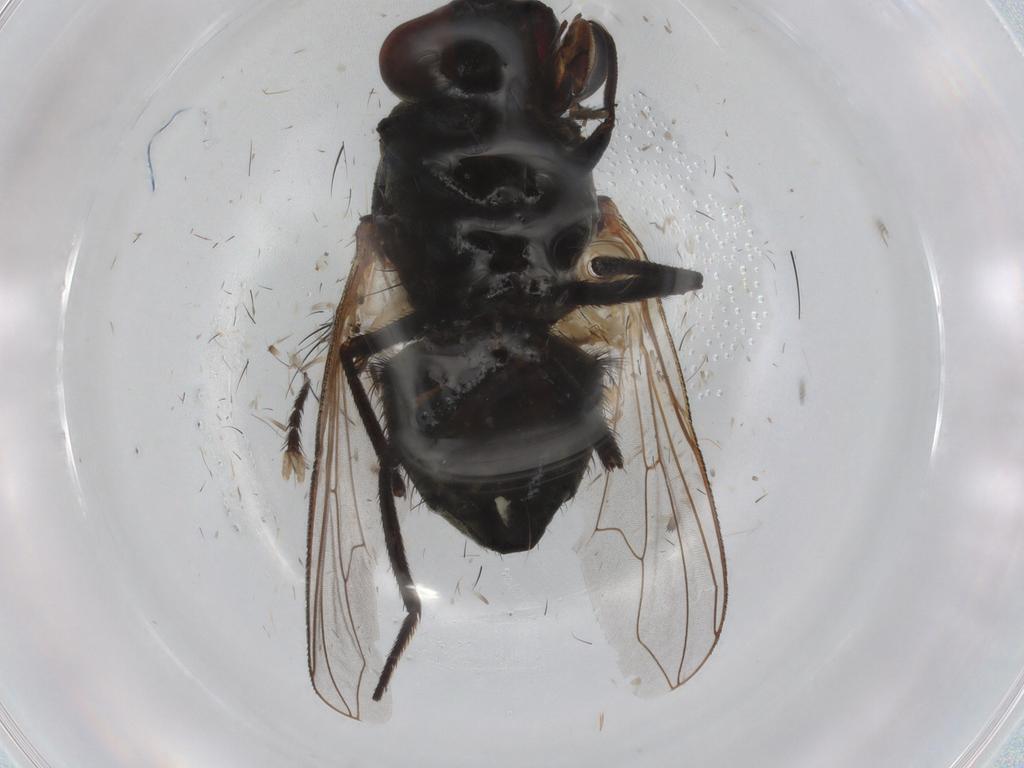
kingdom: Animalia
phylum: Arthropoda
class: Insecta
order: Diptera
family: Muscidae
